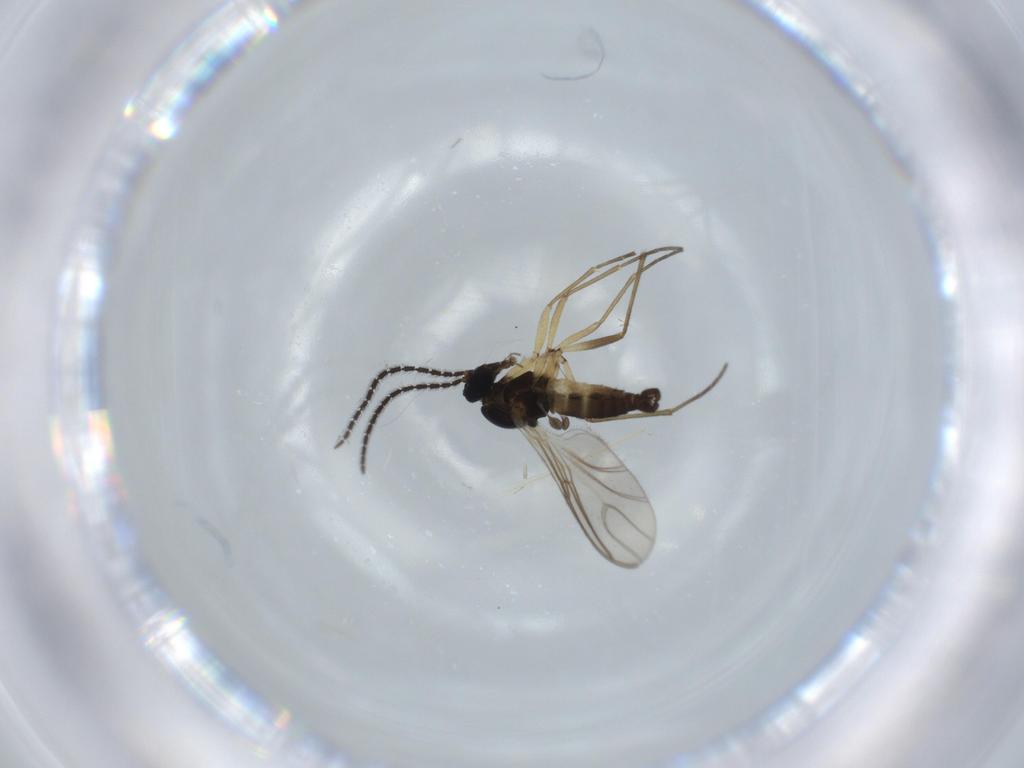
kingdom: Animalia
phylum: Arthropoda
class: Insecta
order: Diptera
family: Sciaridae
